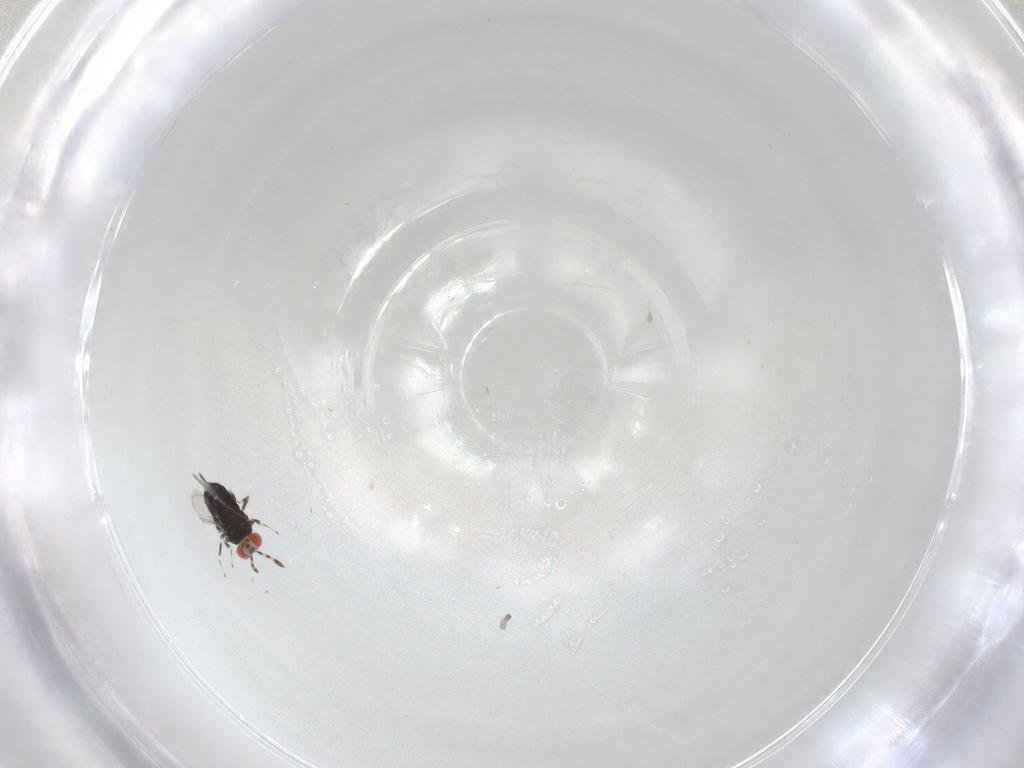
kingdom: Animalia
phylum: Arthropoda
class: Insecta
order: Hymenoptera
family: Azotidae
